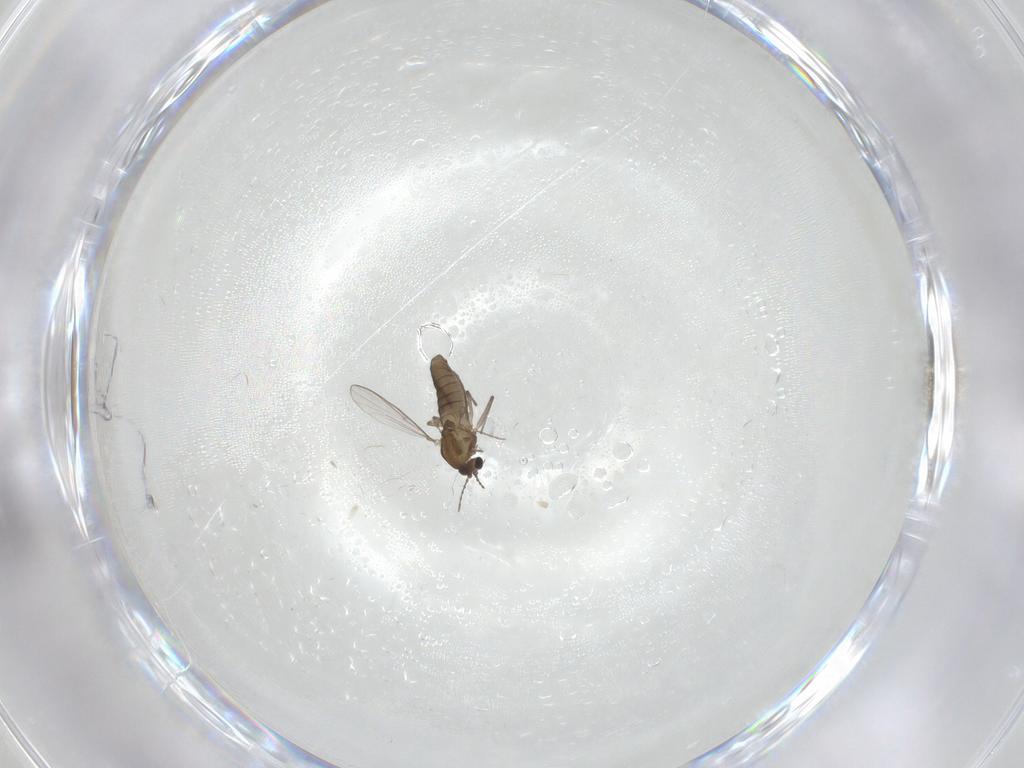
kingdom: Animalia
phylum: Arthropoda
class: Insecta
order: Diptera
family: Chironomidae
